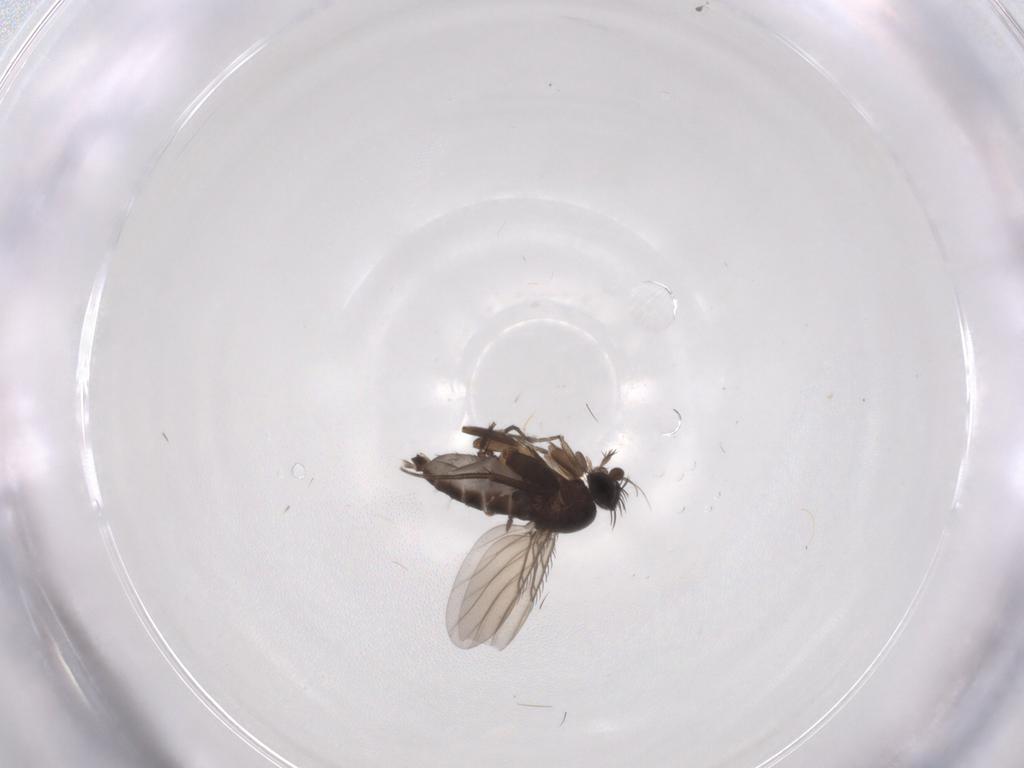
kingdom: Animalia
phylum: Arthropoda
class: Insecta
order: Diptera
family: Phoridae
